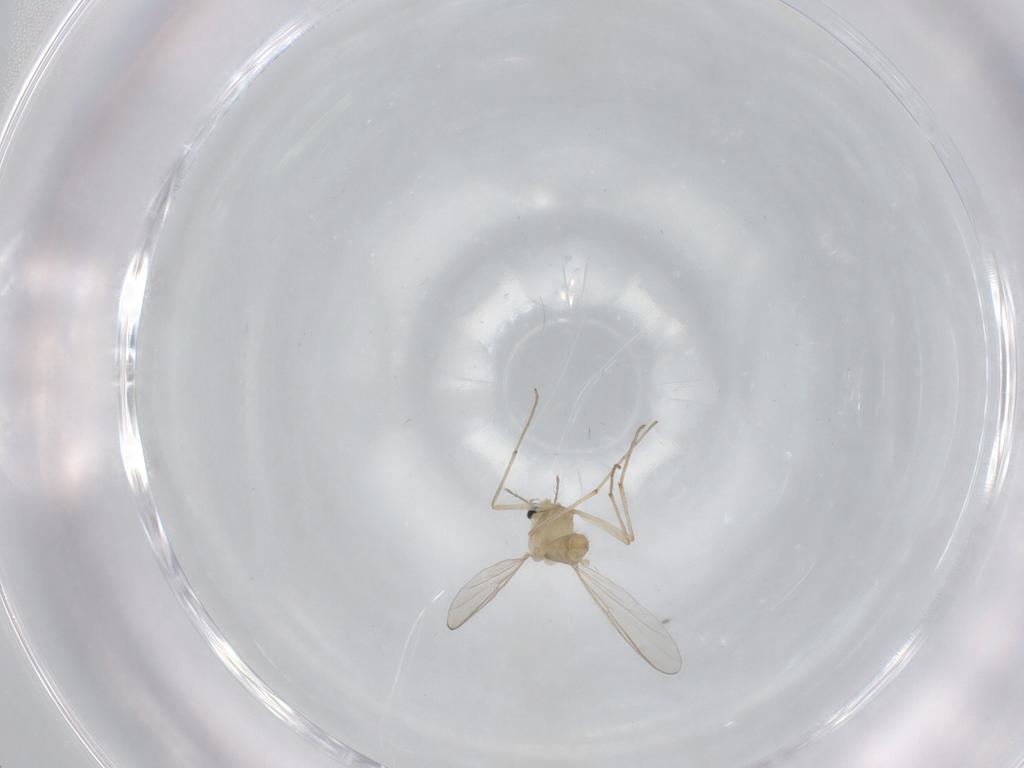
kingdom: Animalia
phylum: Arthropoda
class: Insecta
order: Diptera
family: Chironomidae
